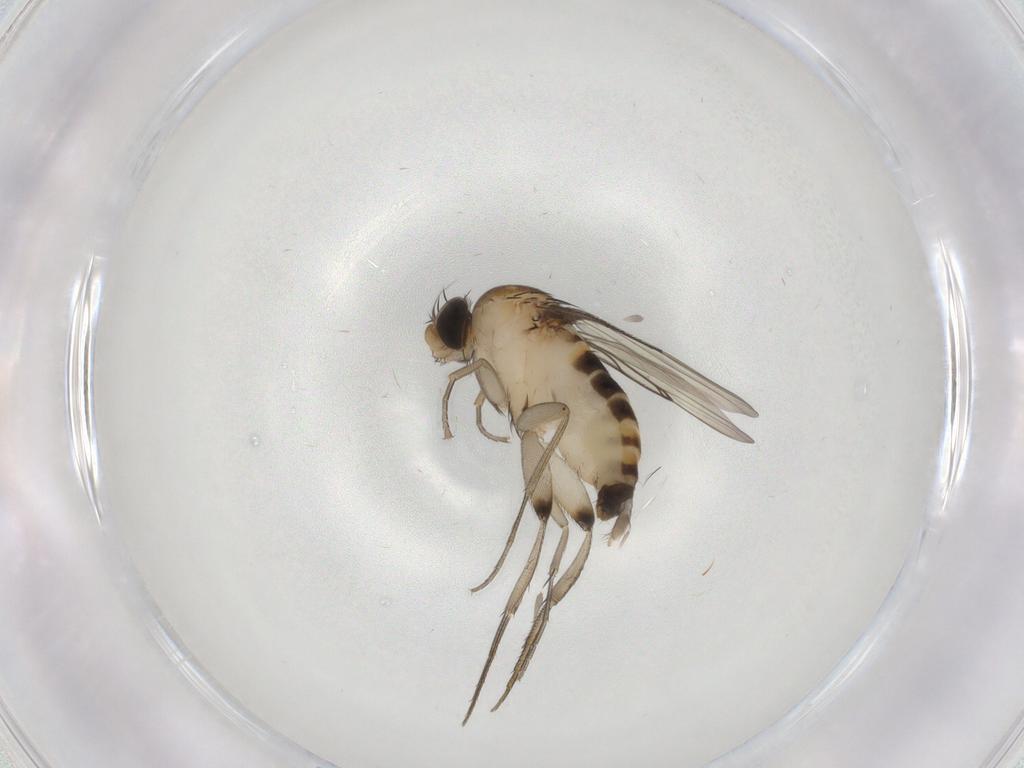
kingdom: Animalia
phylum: Arthropoda
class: Insecta
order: Diptera
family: Phoridae
